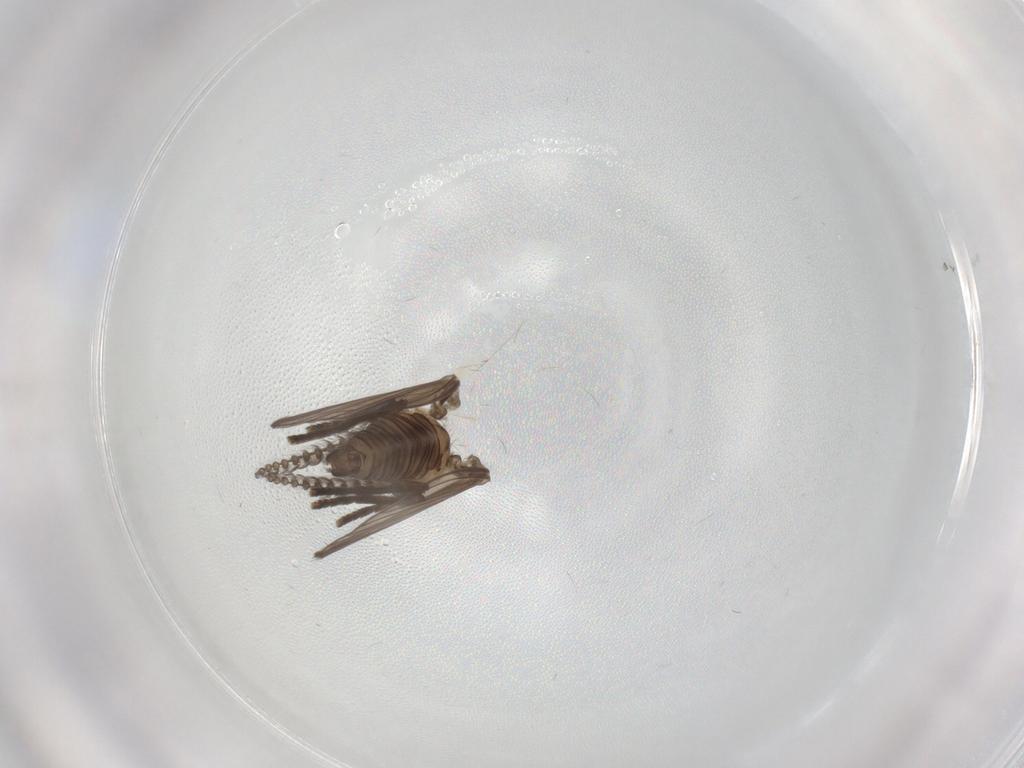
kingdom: Animalia
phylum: Arthropoda
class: Insecta
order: Diptera
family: Psychodidae
